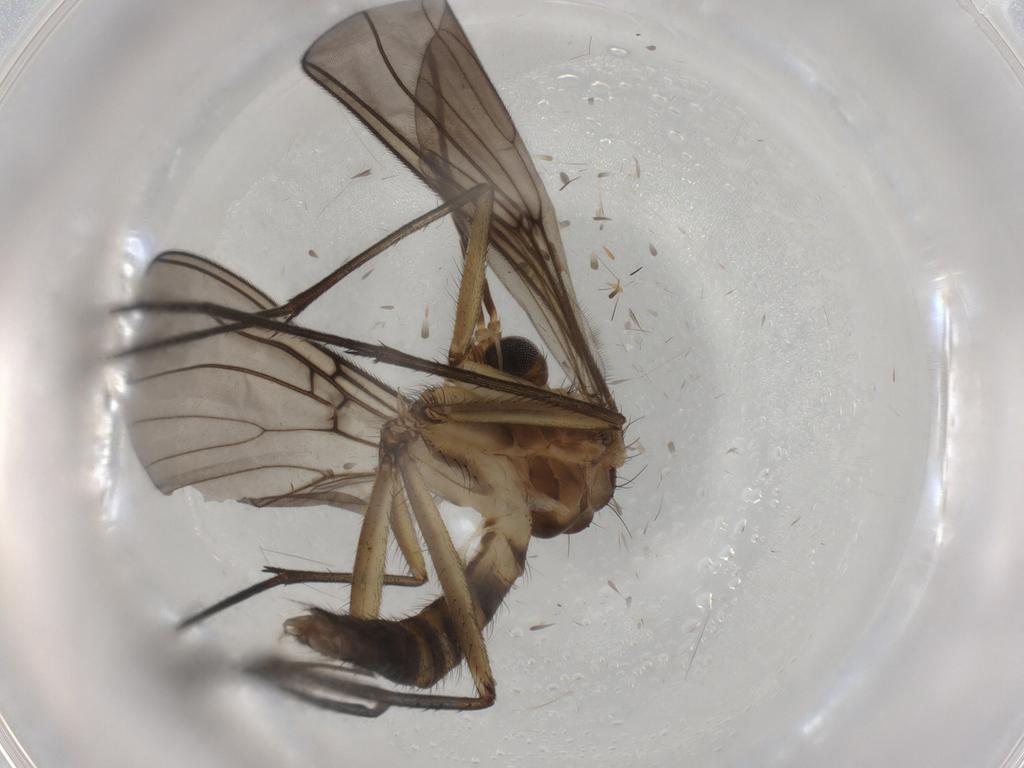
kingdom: Animalia
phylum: Arthropoda
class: Insecta
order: Diptera
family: Mycetophilidae
